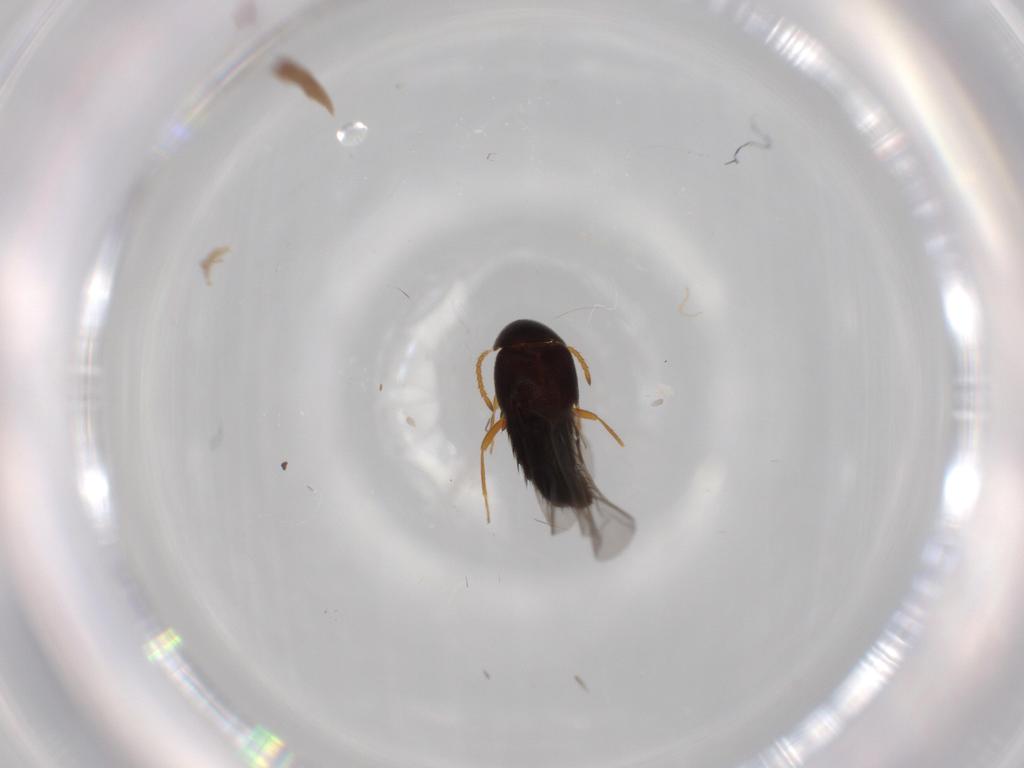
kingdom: Animalia
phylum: Arthropoda
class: Insecta
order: Coleoptera
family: Staphylinidae
